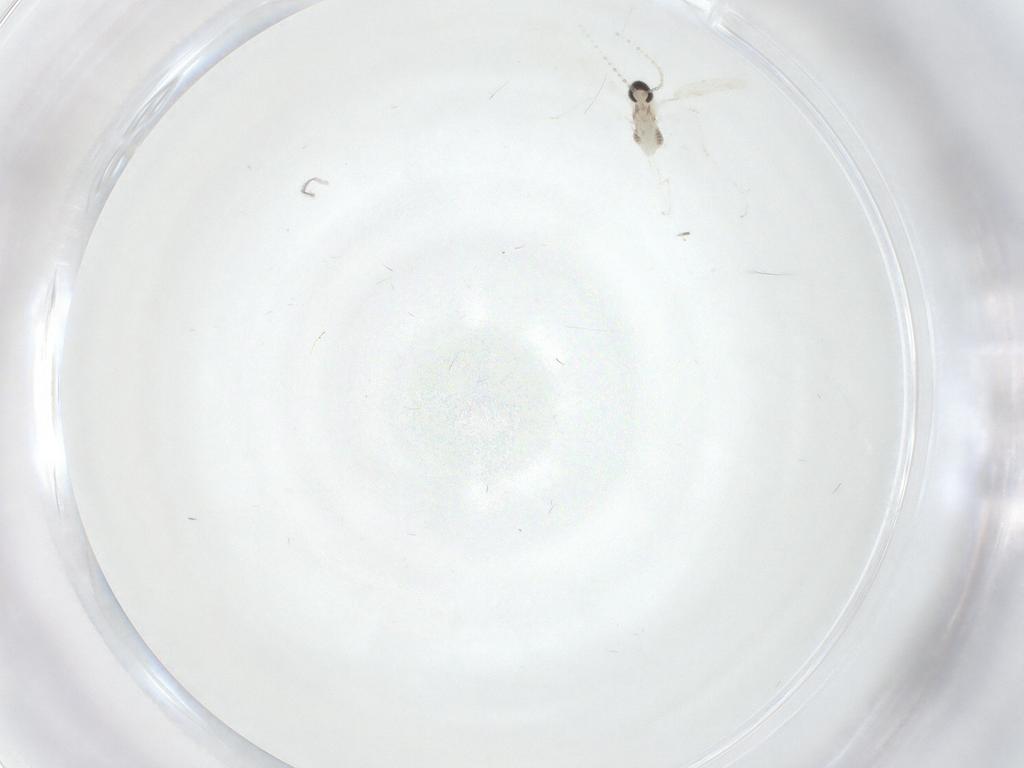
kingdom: Animalia
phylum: Arthropoda
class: Insecta
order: Diptera
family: Cecidomyiidae
